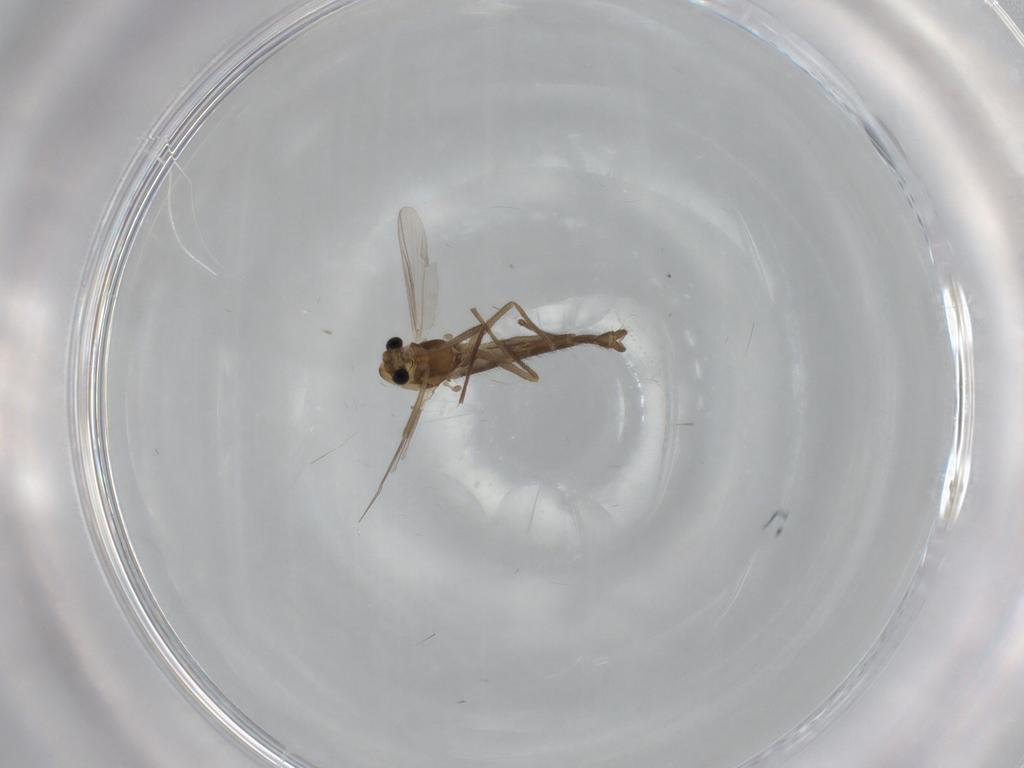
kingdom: Animalia
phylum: Arthropoda
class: Insecta
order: Diptera
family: Chironomidae
